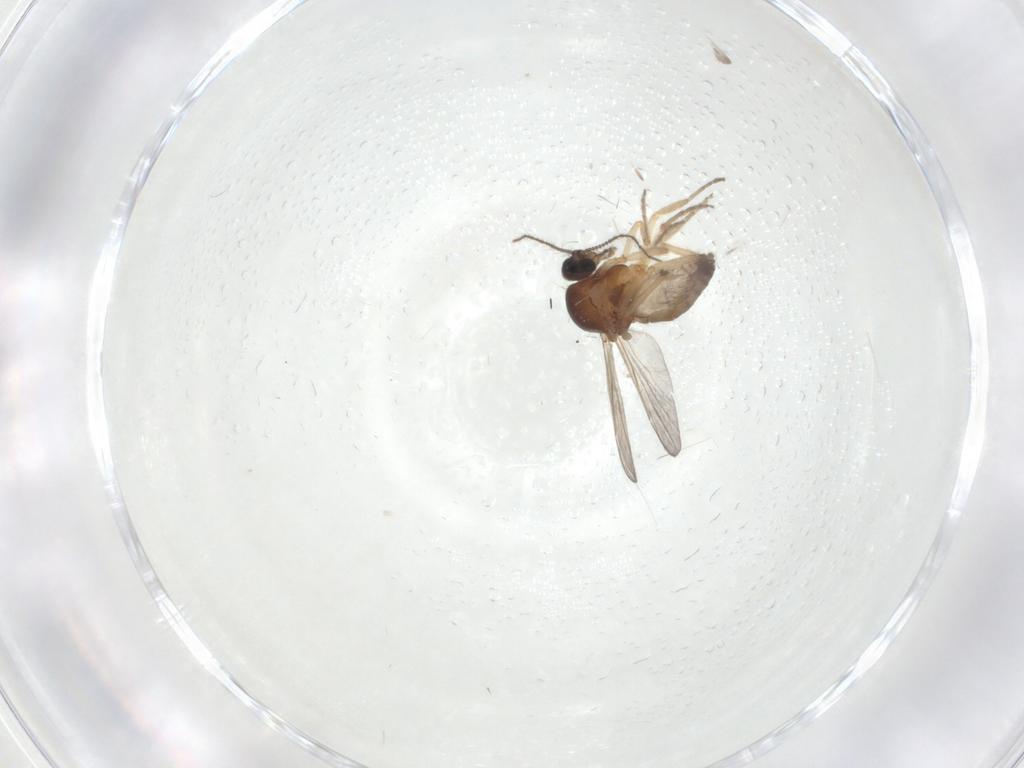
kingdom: Animalia
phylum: Arthropoda
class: Insecta
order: Diptera
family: Ceratopogonidae
